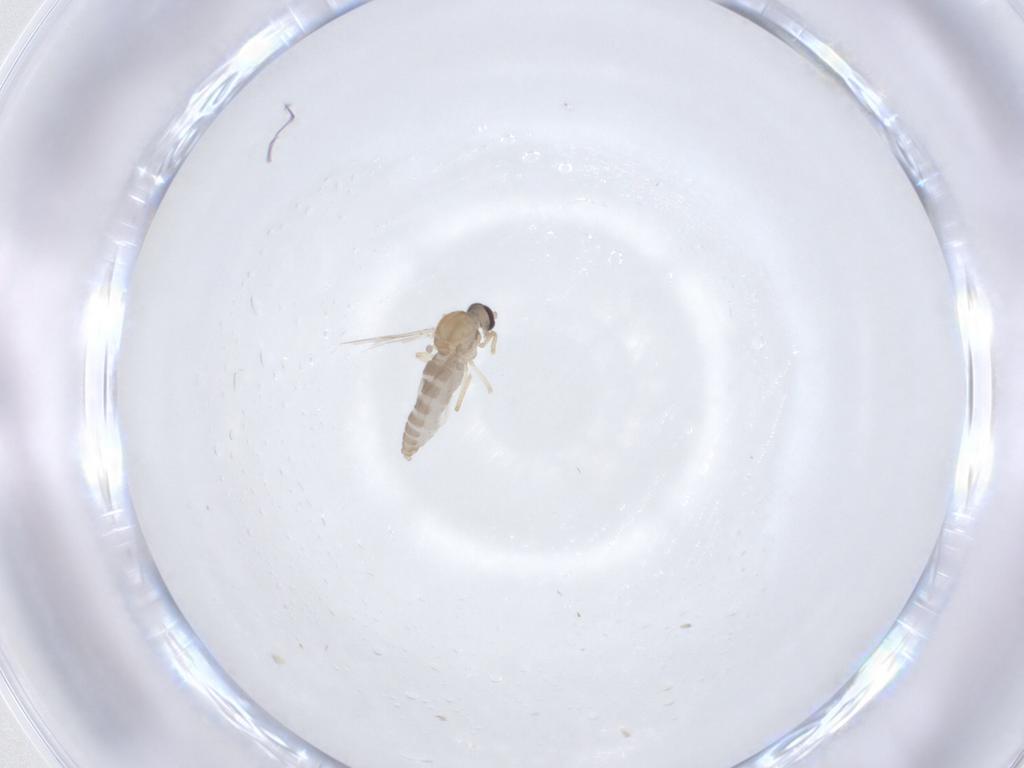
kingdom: Animalia
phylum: Arthropoda
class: Insecta
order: Diptera
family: Ceratopogonidae
